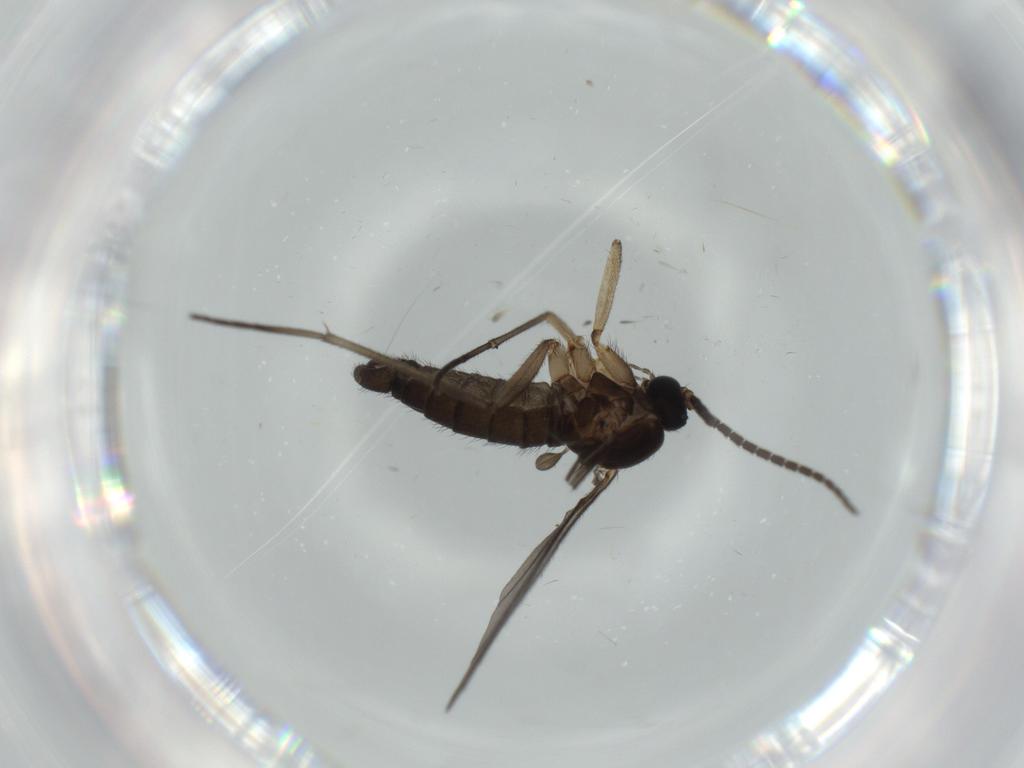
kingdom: Animalia
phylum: Arthropoda
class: Insecta
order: Diptera
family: Sciaridae
